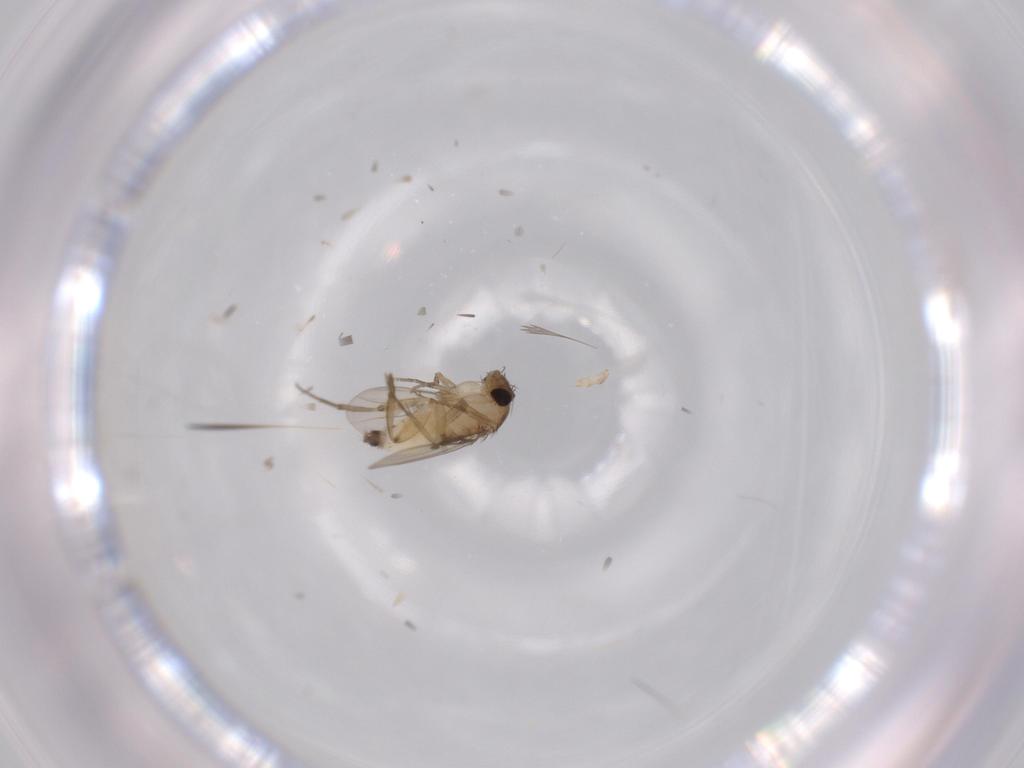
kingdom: Animalia
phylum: Arthropoda
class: Insecta
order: Diptera
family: Phoridae
